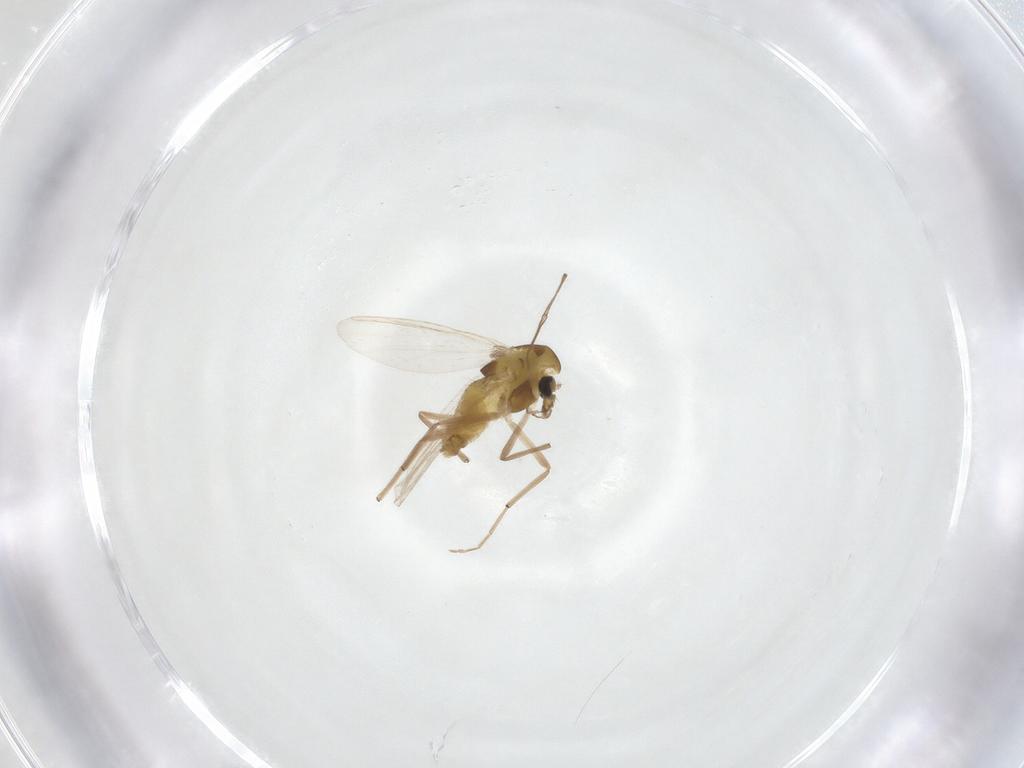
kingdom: Animalia
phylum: Arthropoda
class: Insecta
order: Diptera
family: Chironomidae
